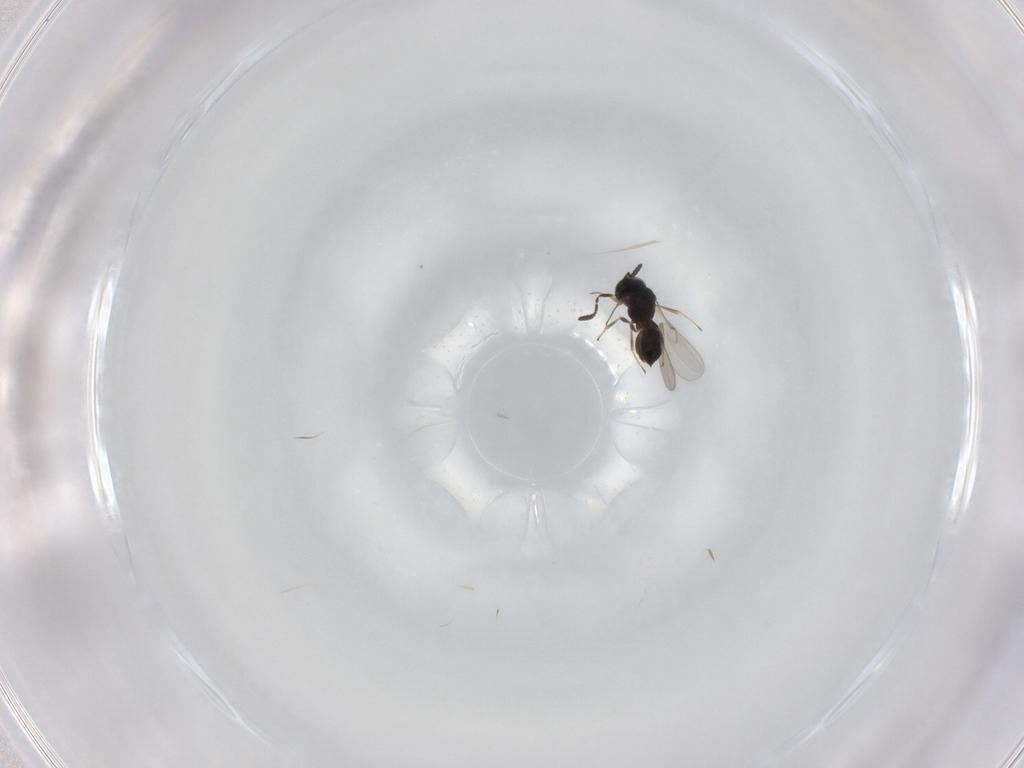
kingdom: Animalia
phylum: Arthropoda
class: Insecta
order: Hymenoptera
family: Scelionidae
